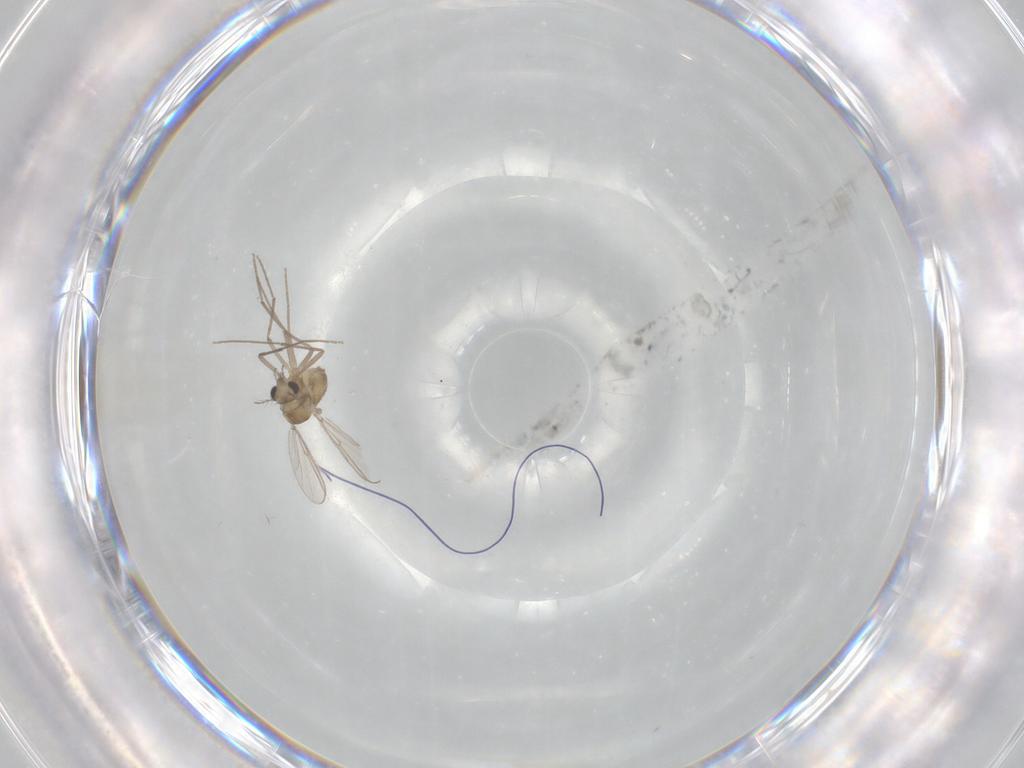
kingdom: Animalia
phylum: Arthropoda
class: Insecta
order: Diptera
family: Chironomidae
